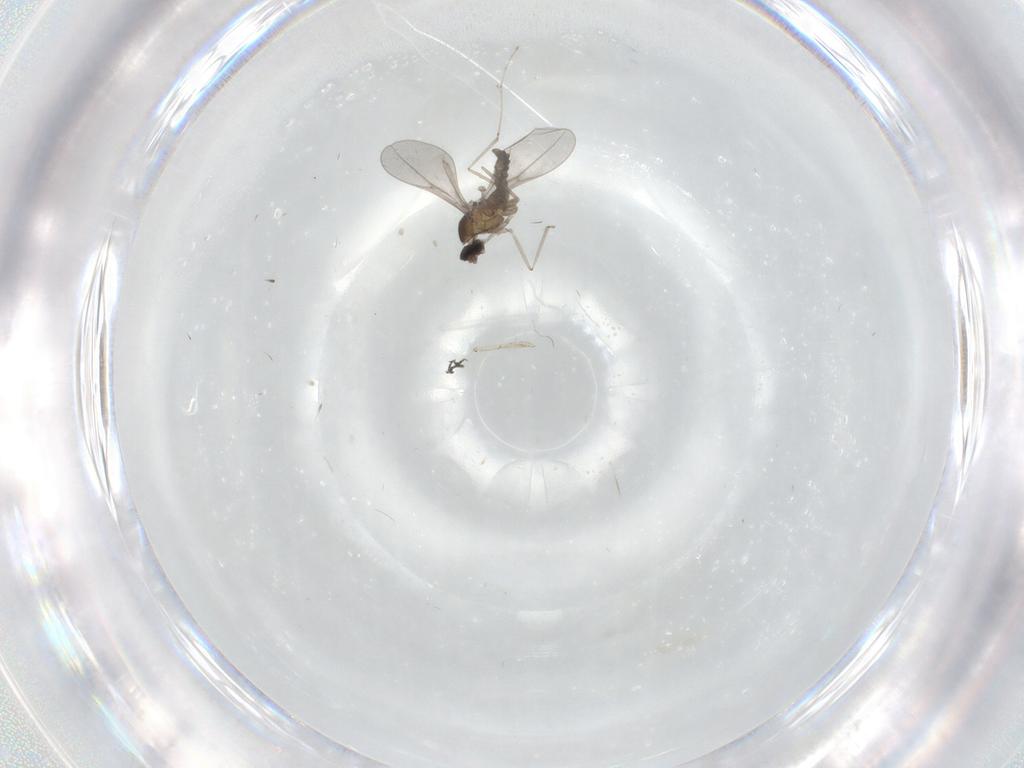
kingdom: Animalia
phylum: Arthropoda
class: Insecta
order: Diptera
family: Cecidomyiidae
